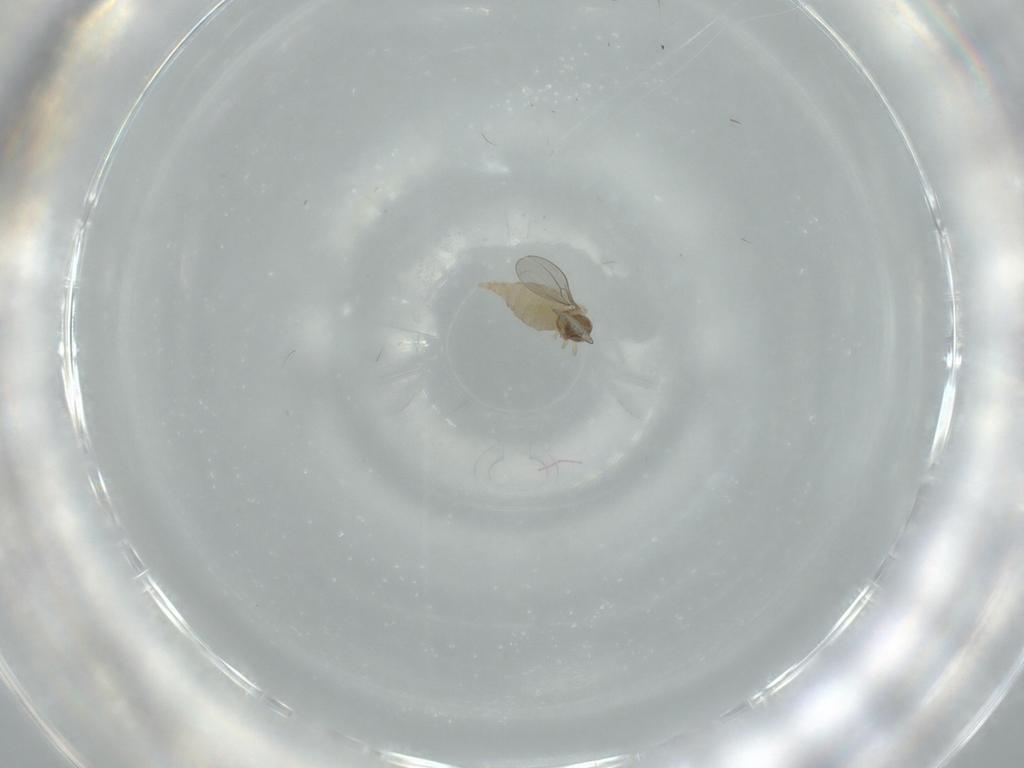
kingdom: Animalia
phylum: Arthropoda
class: Insecta
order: Diptera
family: Cecidomyiidae
